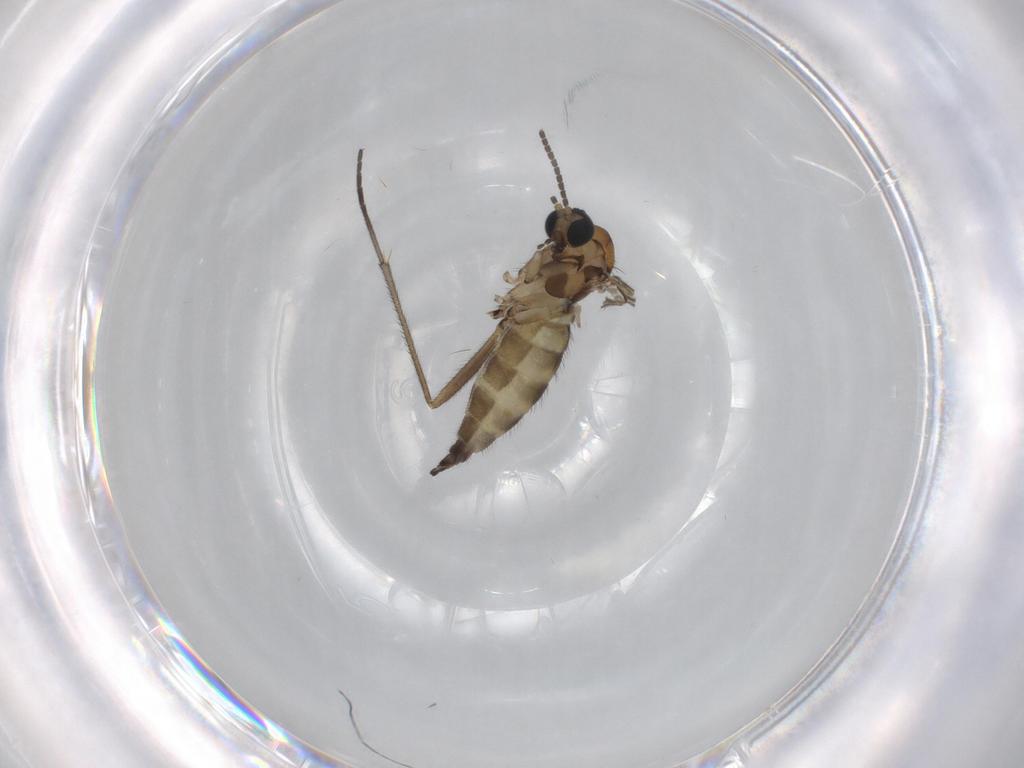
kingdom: Animalia
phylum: Arthropoda
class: Insecta
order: Diptera
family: Sciaridae
